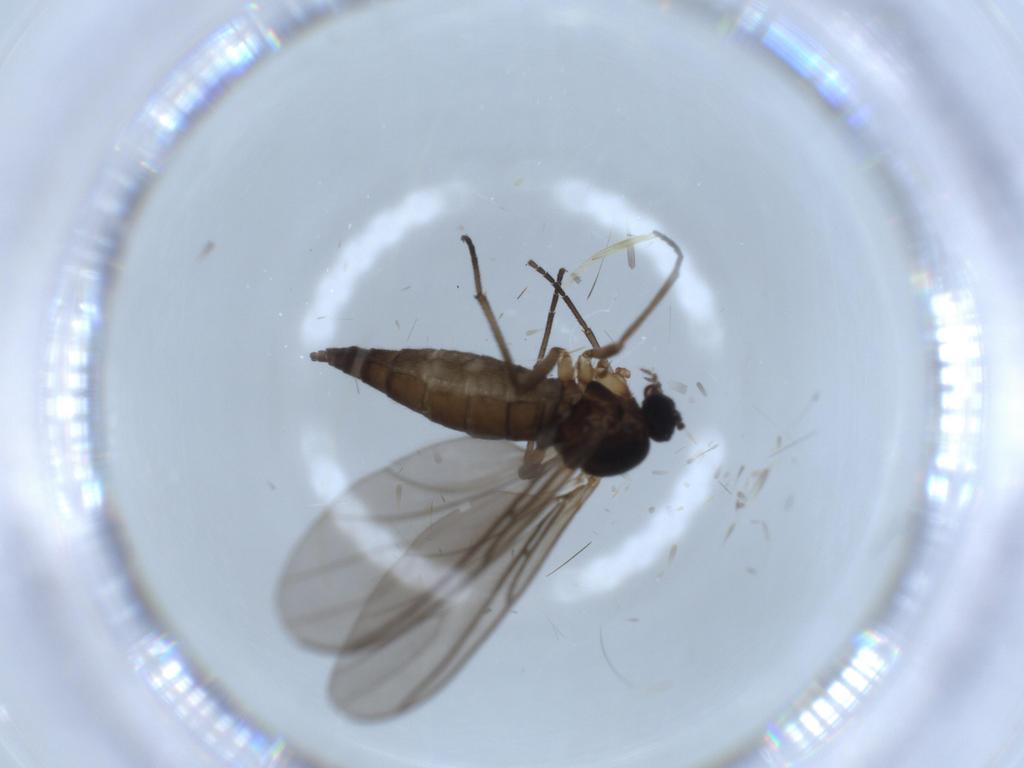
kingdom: Animalia
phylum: Arthropoda
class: Insecta
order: Diptera
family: Sciaridae
